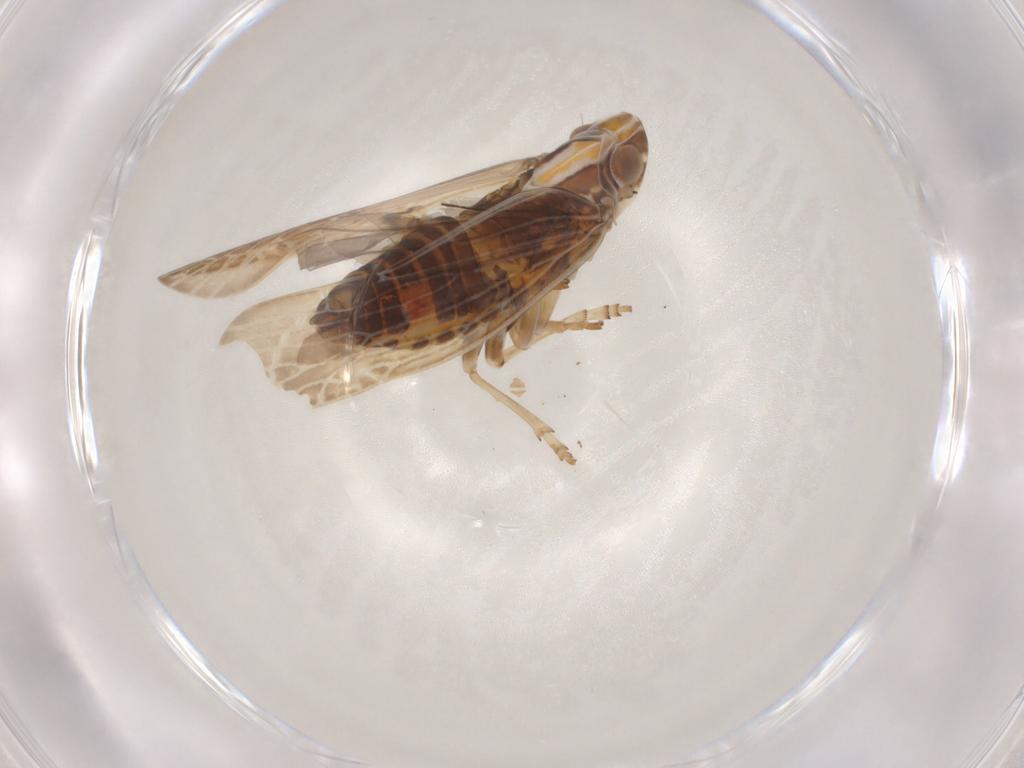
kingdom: Animalia
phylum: Arthropoda
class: Insecta
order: Hemiptera
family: Achilidae
